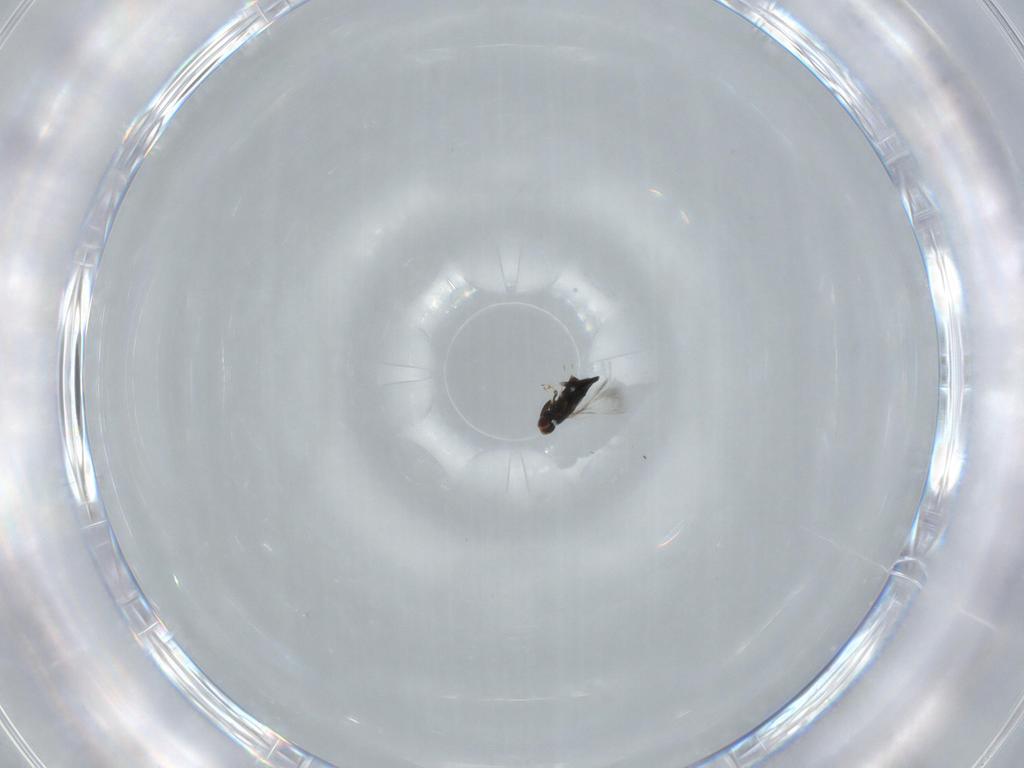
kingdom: Animalia
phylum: Arthropoda
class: Insecta
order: Hymenoptera
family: Signiphoridae
